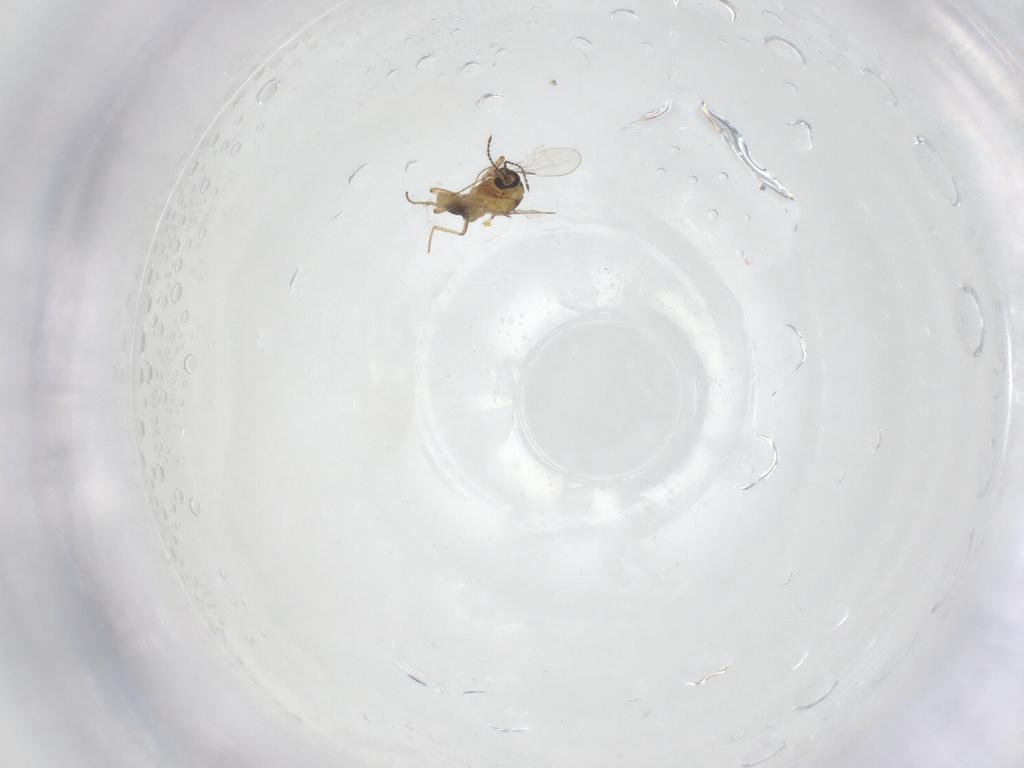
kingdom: Animalia
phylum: Arthropoda
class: Insecta
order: Diptera
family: Ceratopogonidae
